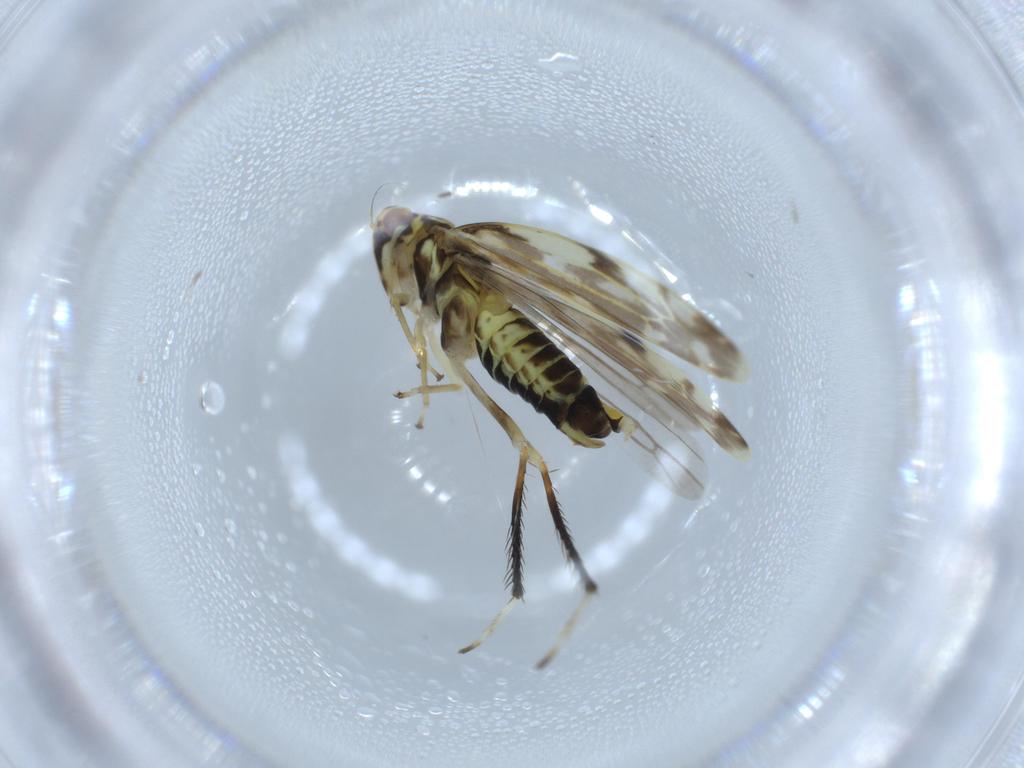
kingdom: Animalia
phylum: Arthropoda
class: Insecta
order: Hemiptera
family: Cicadellidae
